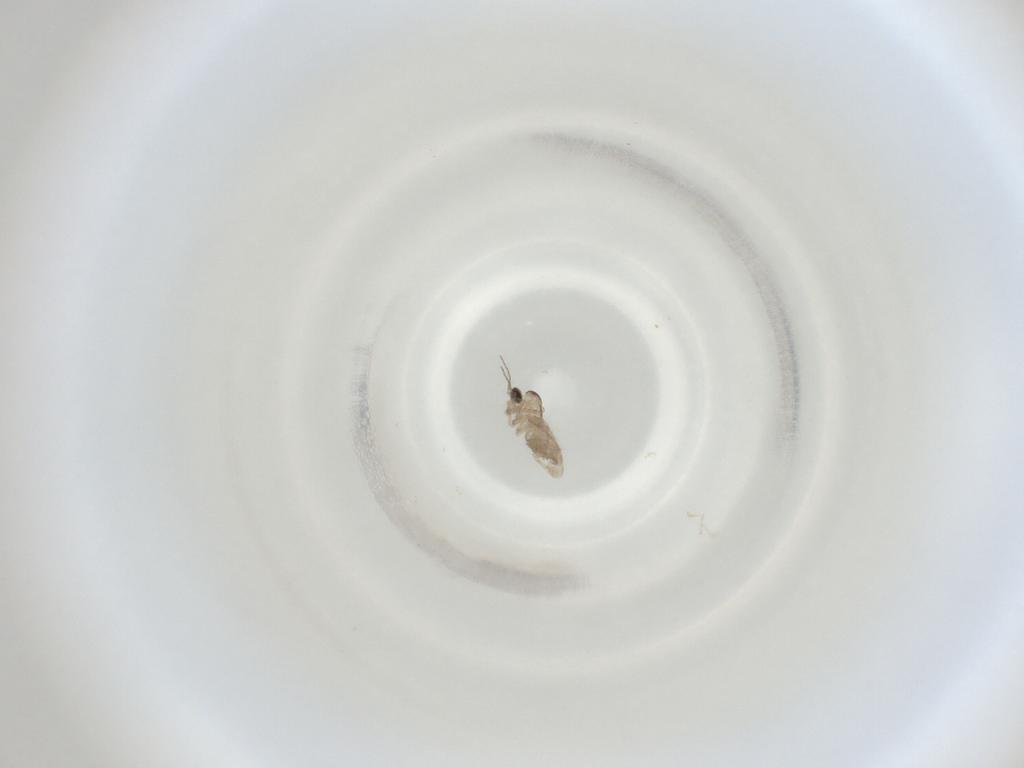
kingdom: Animalia
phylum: Arthropoda
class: Insecta
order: Diptera
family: Cecidomyiidae
